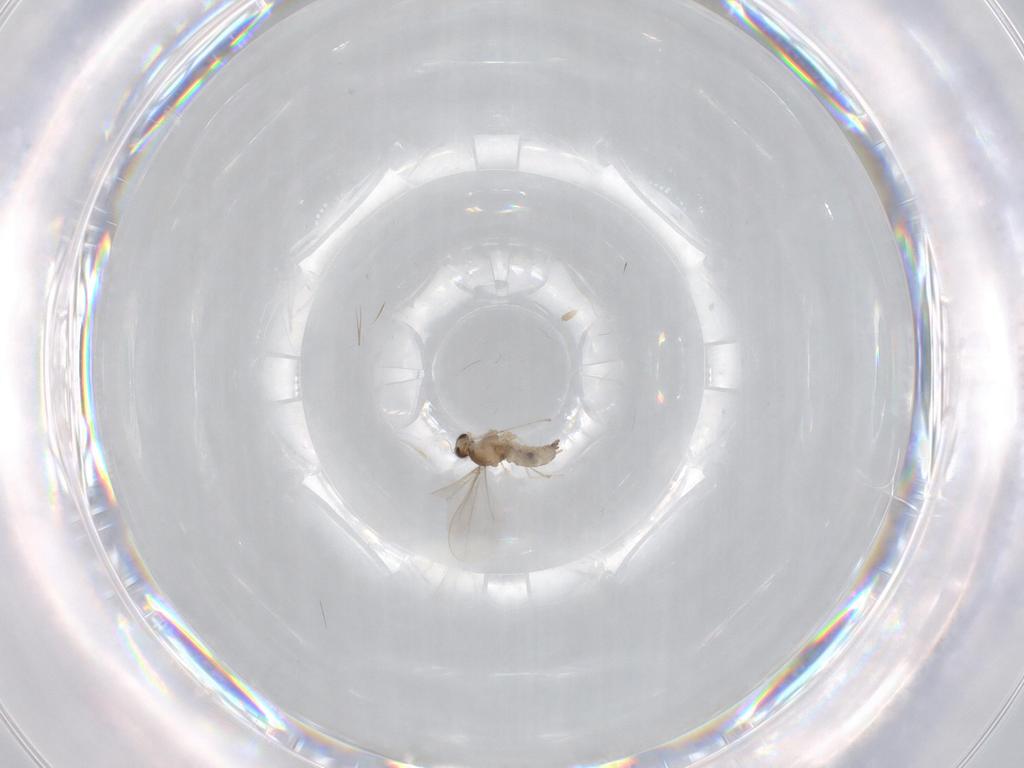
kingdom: Animalia
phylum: Arthropoda
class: Insecta
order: Diptera
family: Cecidomyiidae
